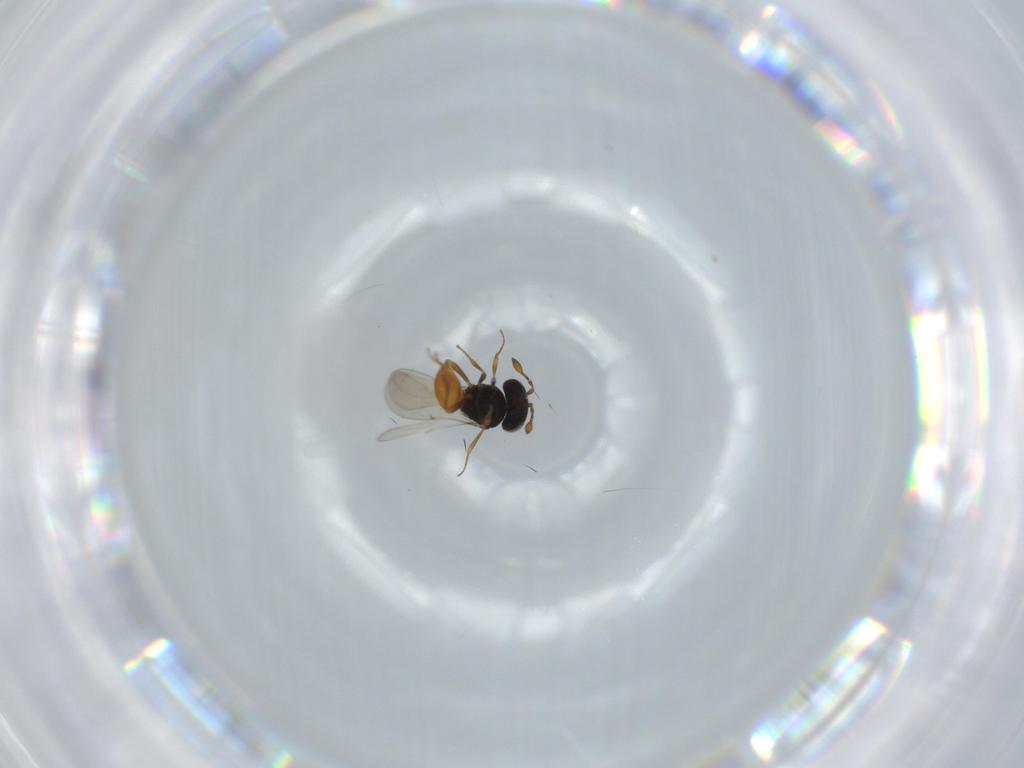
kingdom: Animalia
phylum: Arthropoda
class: Insecta
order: Hymenoptera
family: Scelionidae
